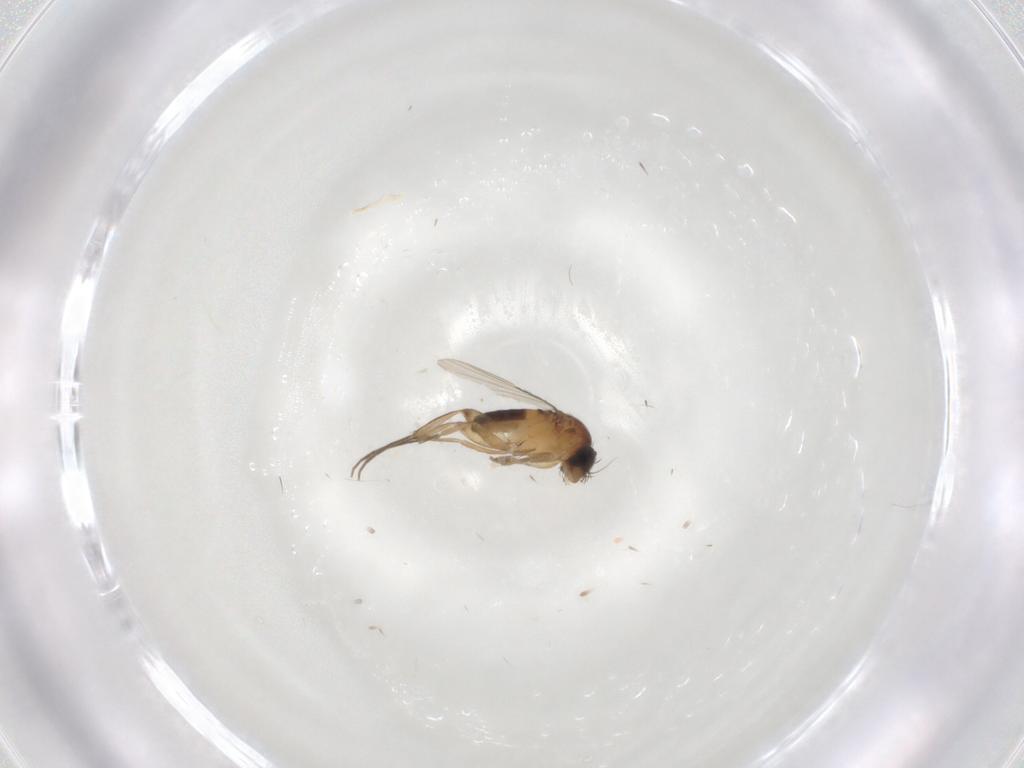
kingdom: Animalia
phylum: Arthropoda
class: Insecta
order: Diptera
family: Phoridae
